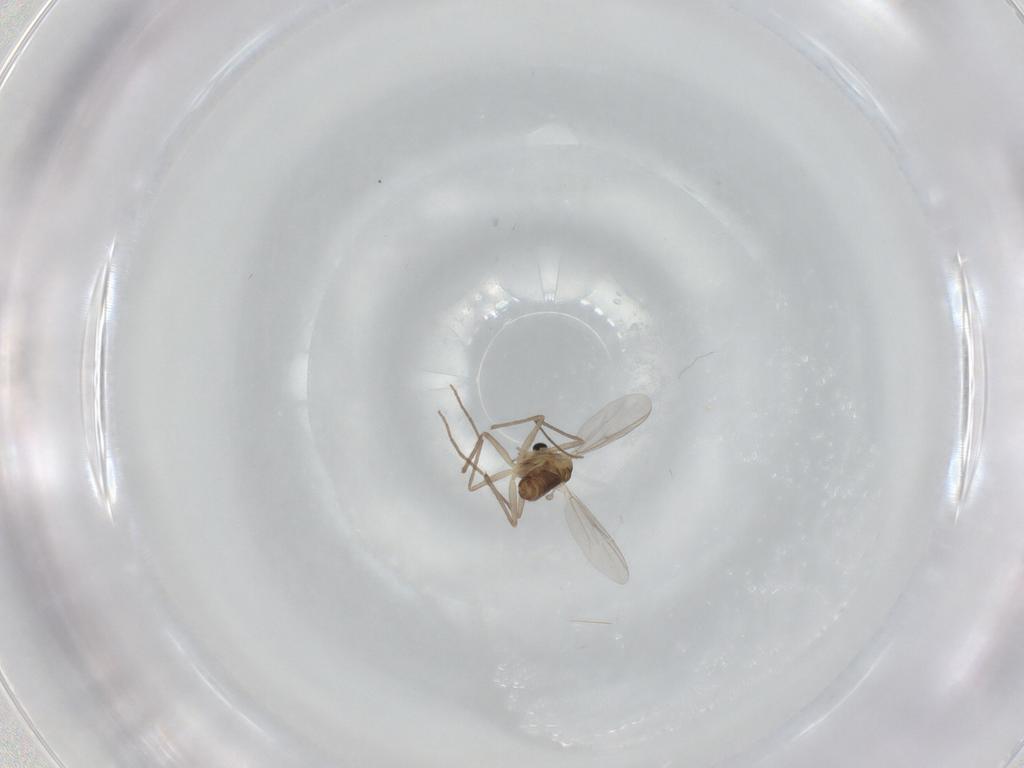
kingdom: Animalia
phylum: Arthropoda
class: Insecta
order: Diptera
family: Chironomidae
